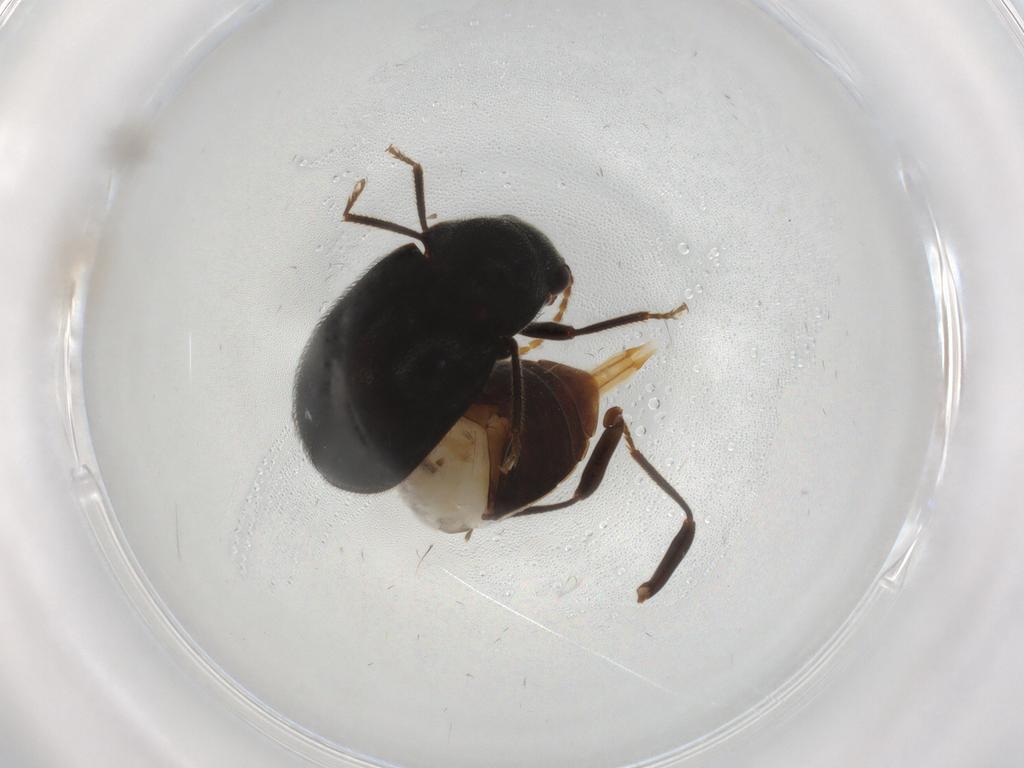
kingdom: Animalia
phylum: Arthropoda
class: Insecta
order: Coleoptera
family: Ptilodactylidae
